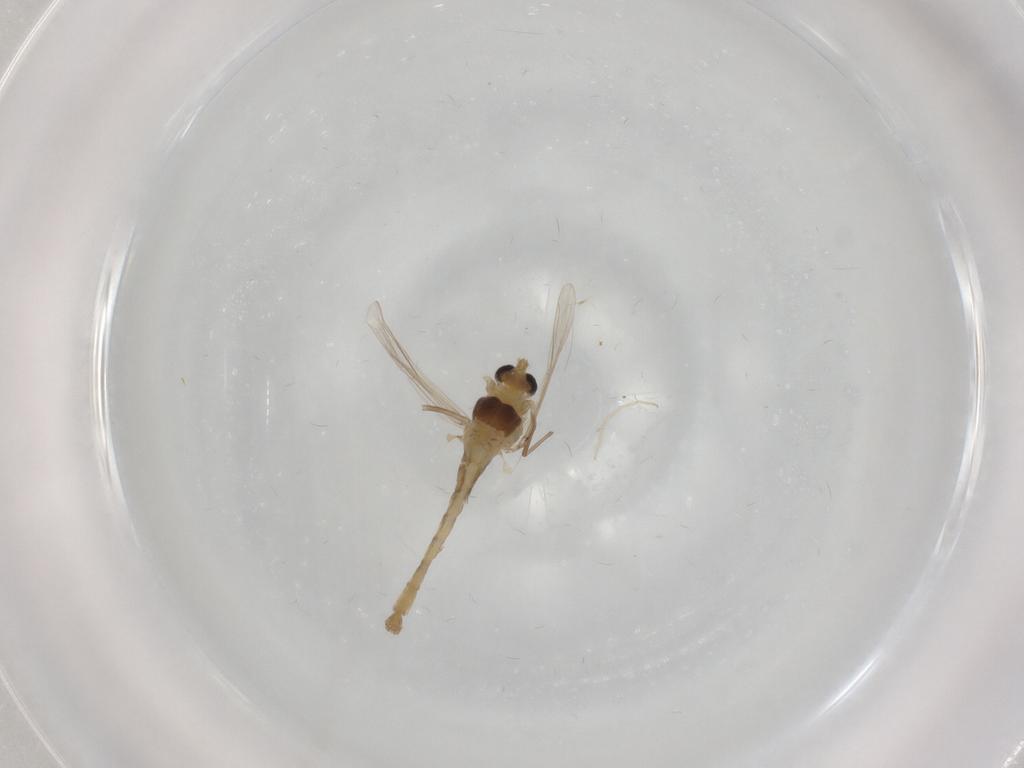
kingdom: Animalia
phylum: Arthropoda
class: Insecta
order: Diptera
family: Chironomidae
